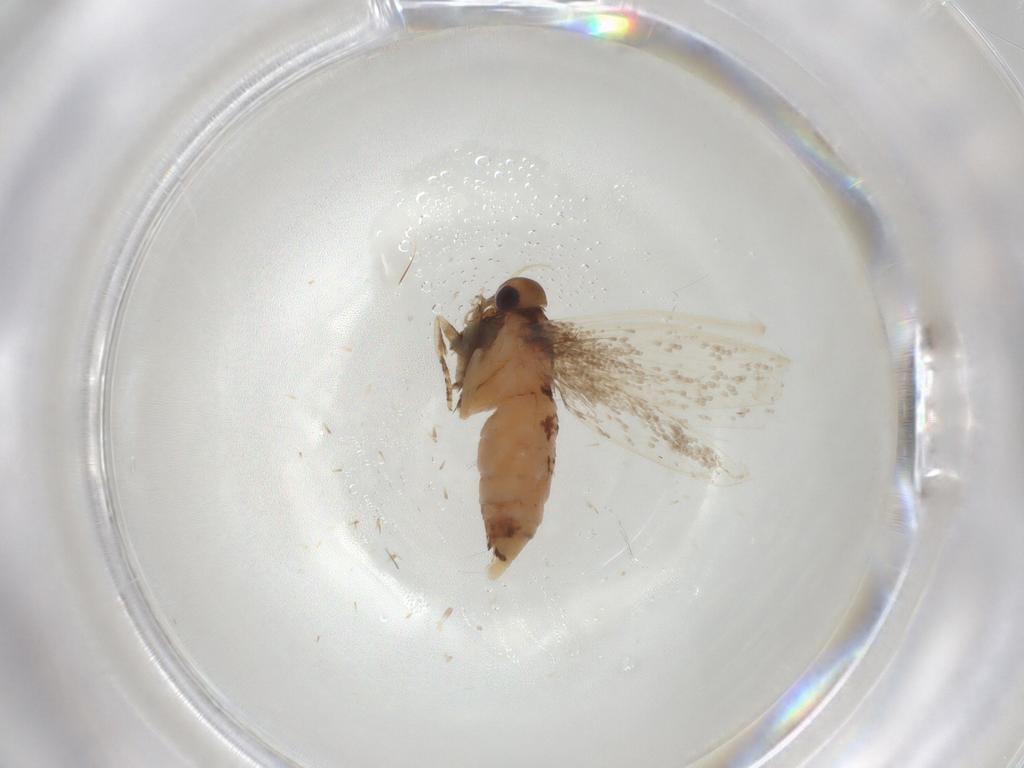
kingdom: Animalia
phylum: Arthropoda
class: Insecta
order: Lepidoptera
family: Oecophoridae
